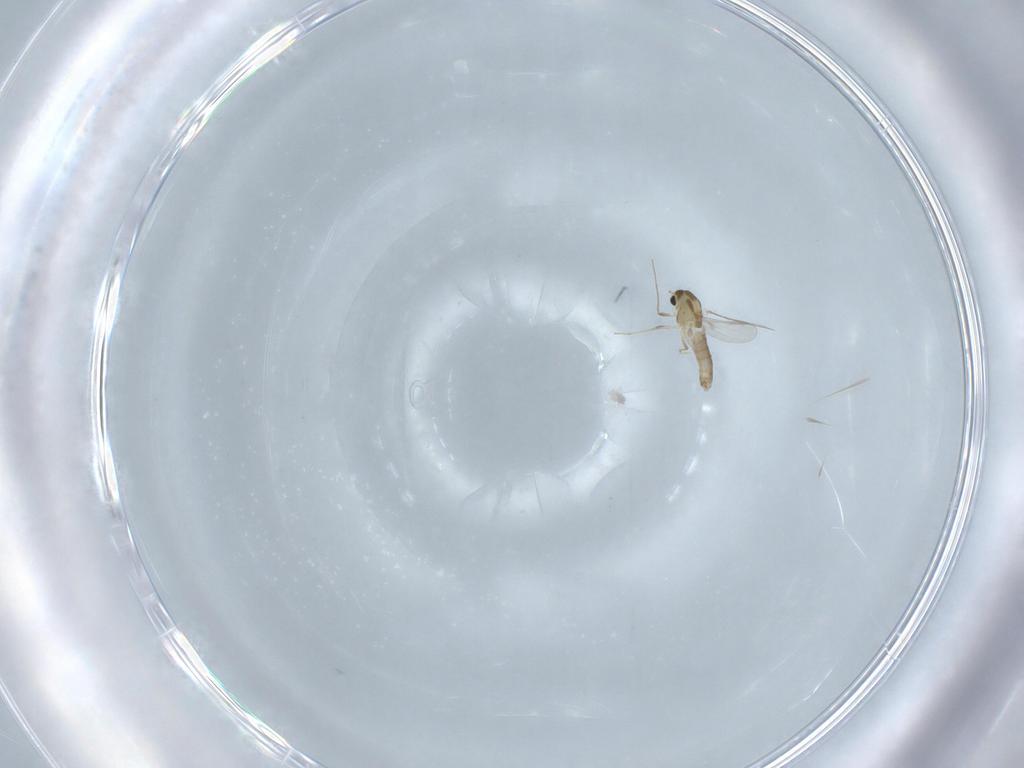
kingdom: Animalia
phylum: Arthropoda
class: Insecta
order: Diptera
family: Chironomidae
